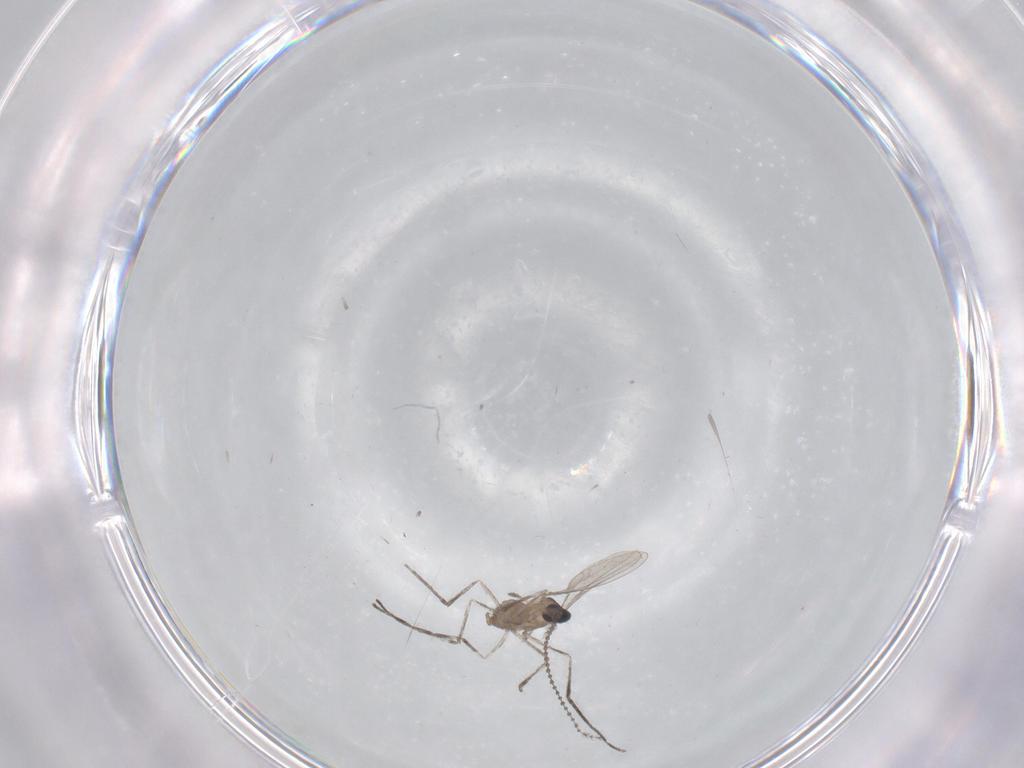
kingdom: Animalia
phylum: Arthropoda
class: Insecta
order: Diptera
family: Chironomidae
